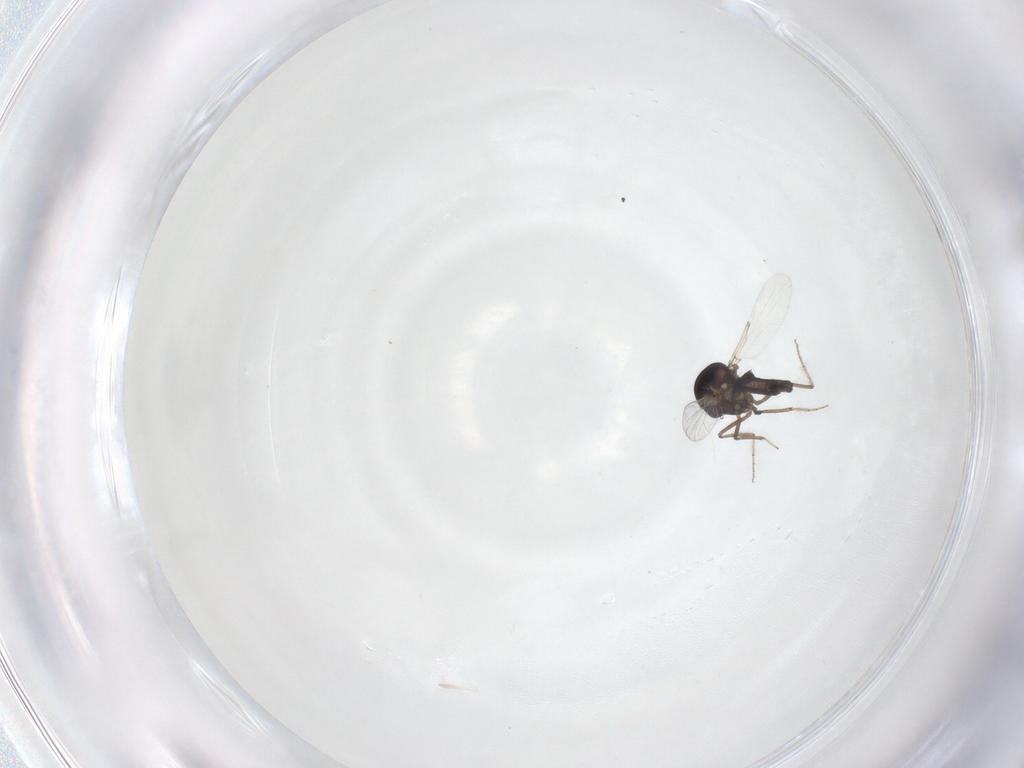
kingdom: Animalia
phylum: Arthropoda
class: Insecta
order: Diptera
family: Ceratopogonidae
